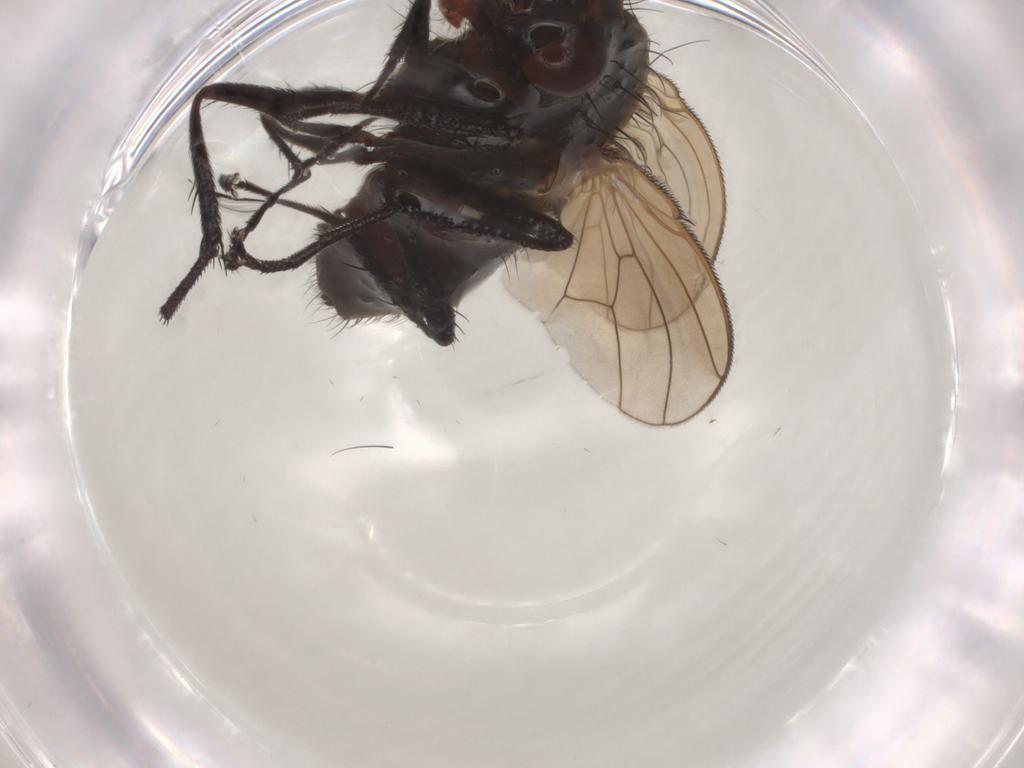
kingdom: Animalia
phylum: Arthropoda
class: Insecta
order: Diptera
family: Anthomyiidae
